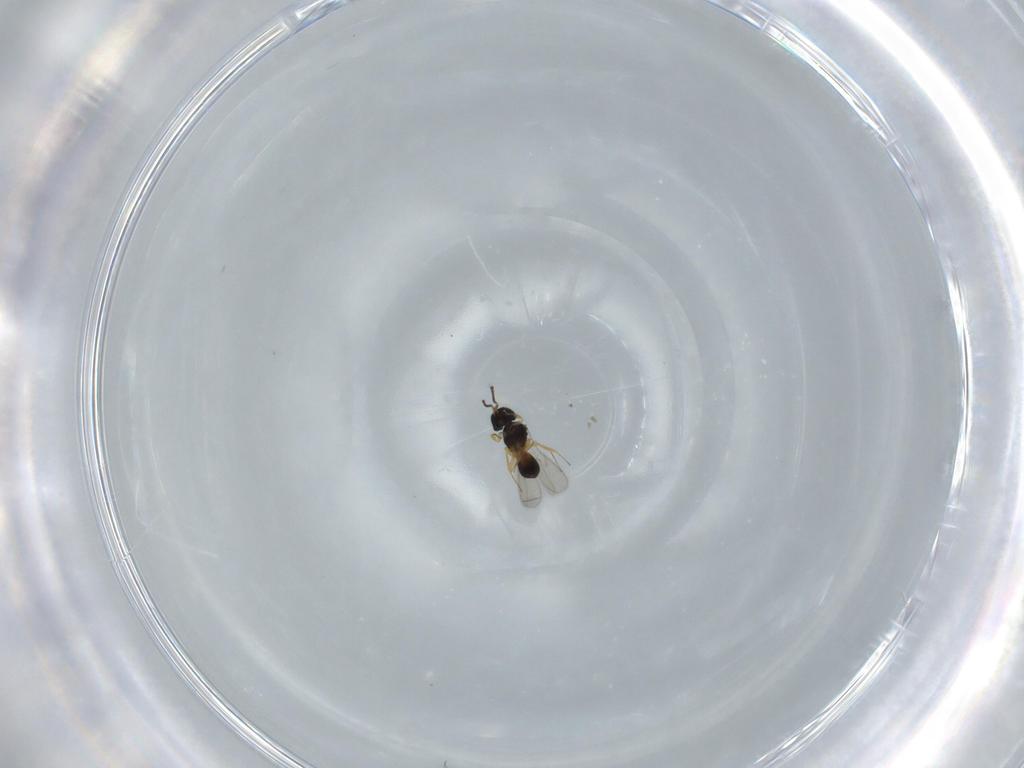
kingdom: Animalia
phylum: Arthropoda
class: Insecta
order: Hymenoptera
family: Scelionidae
